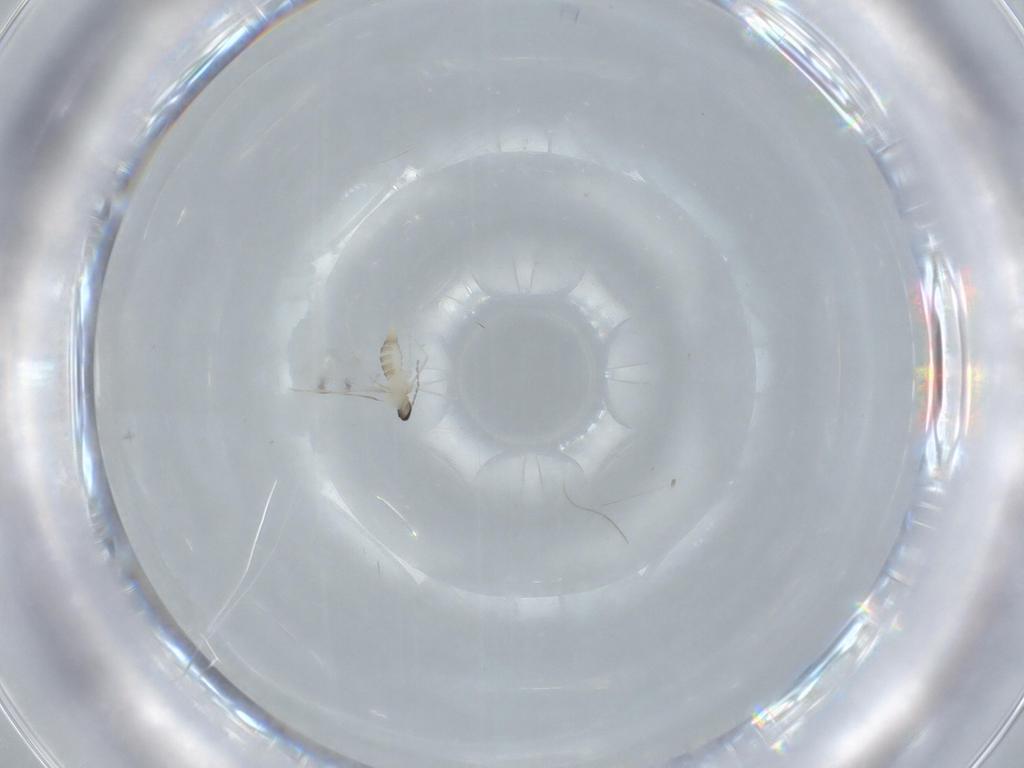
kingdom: Animalia
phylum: Arthropoda
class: Insecta
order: Diptera
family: Cecidomyiidae
